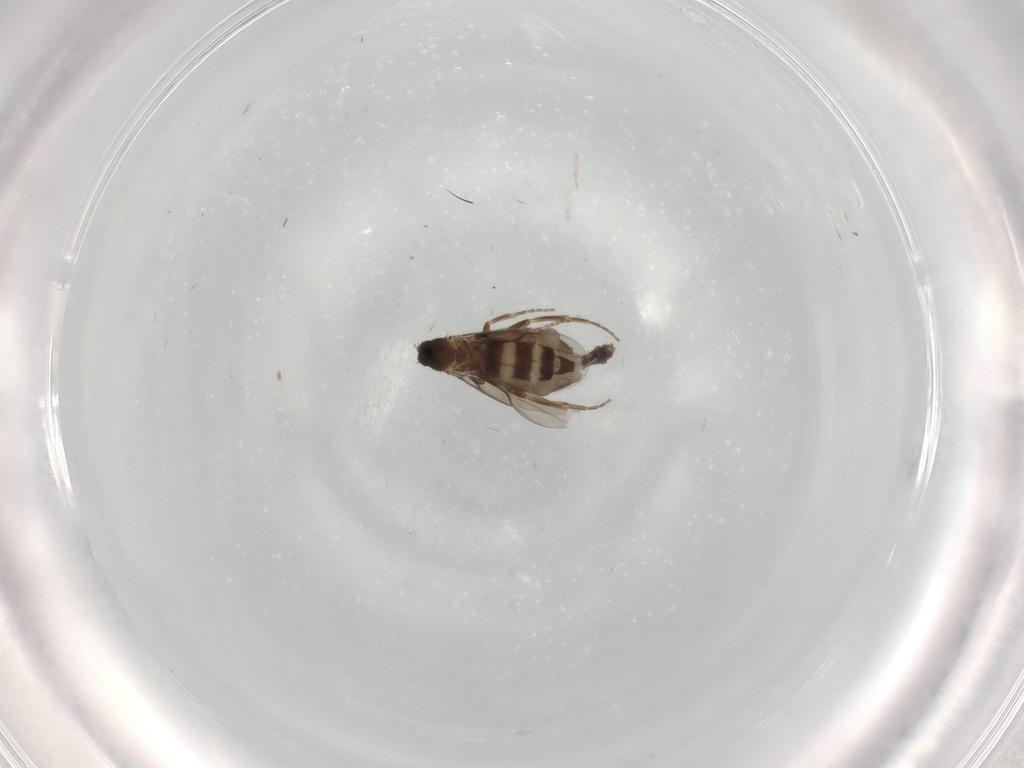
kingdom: Animalia
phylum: Arthropoda
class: Insecta
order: Diptera
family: Phoridae
